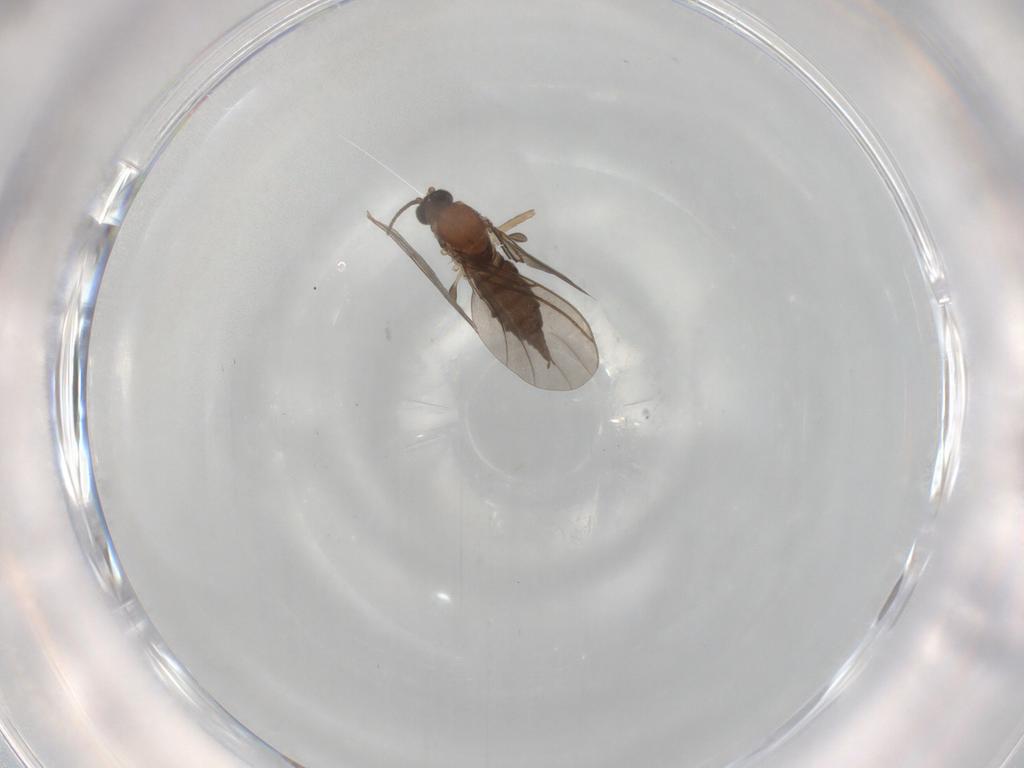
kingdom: Animalia
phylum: Arthropoda
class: Insecta
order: Diptera
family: Sciaridae
